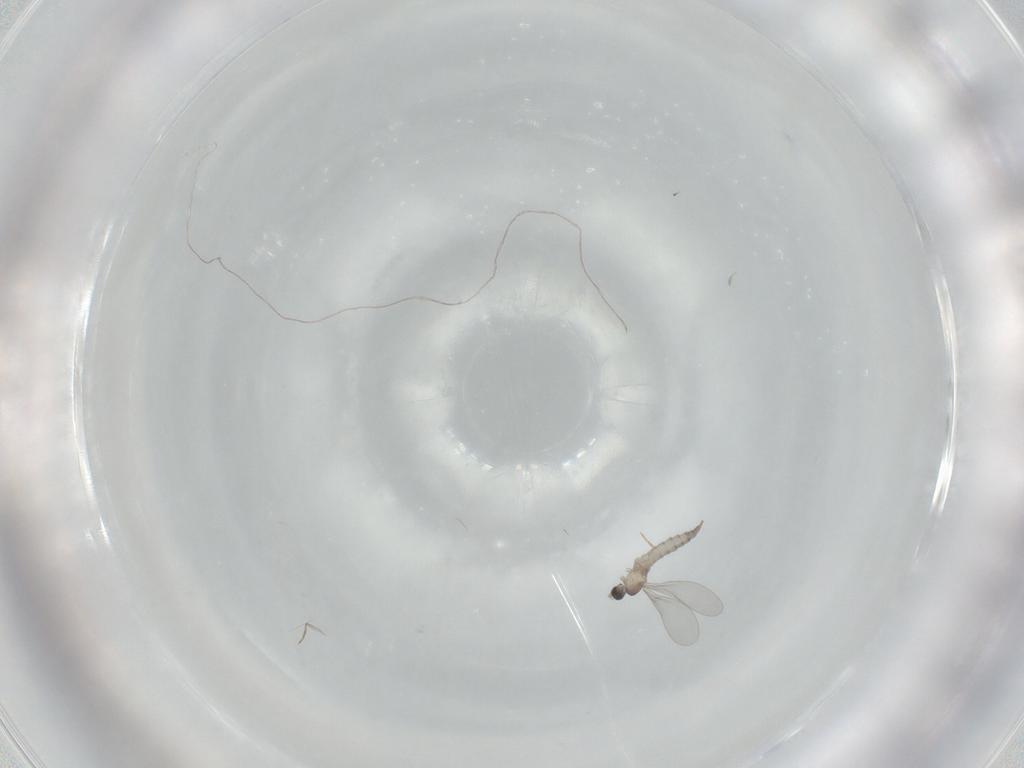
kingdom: Animalia
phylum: Arthropoda
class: Insecta
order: Diptera
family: Cecidomyiidae
